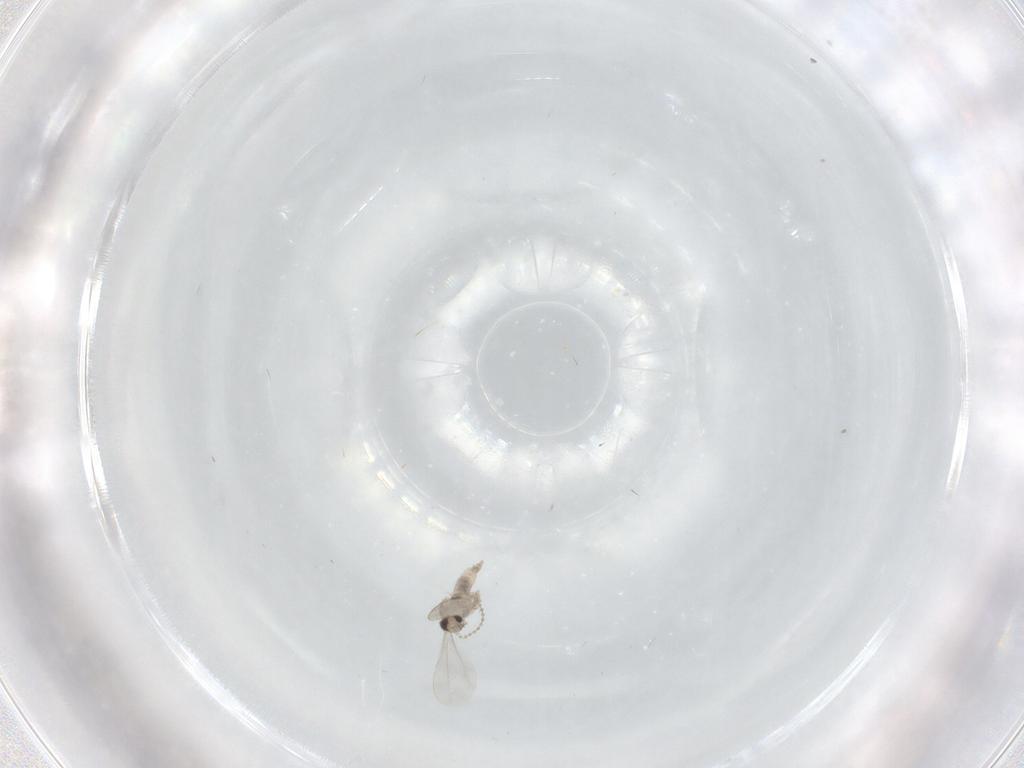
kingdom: Animalia
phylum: Arthropoda
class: Insecta
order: Diptera
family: Cecidomyiidae
